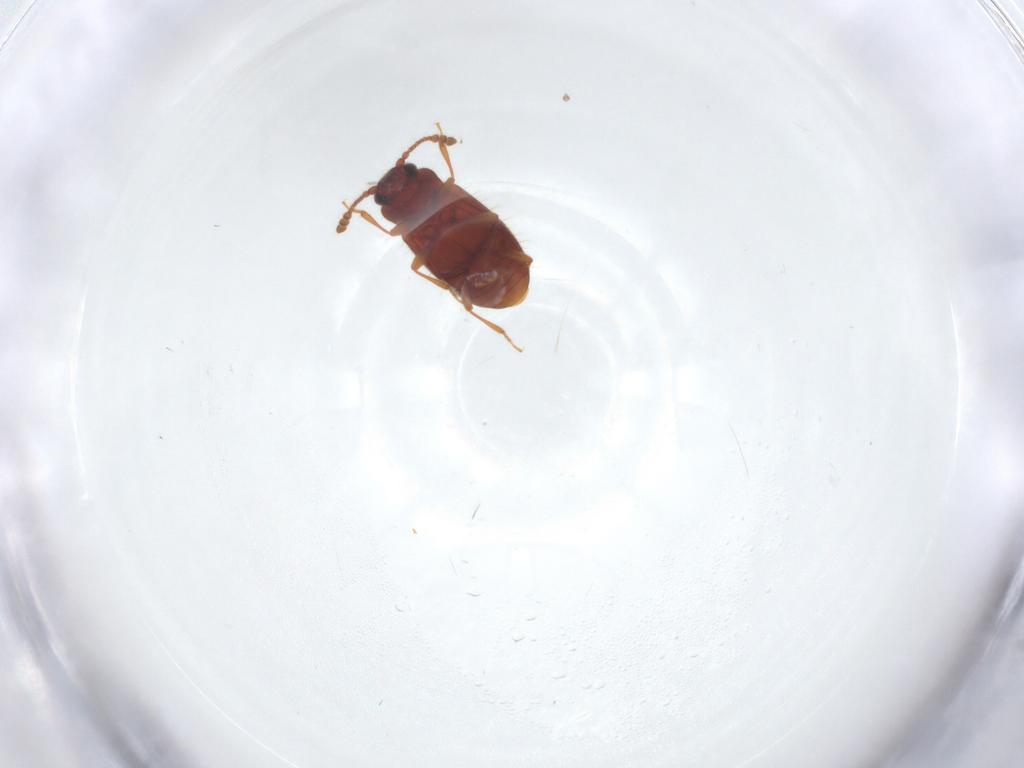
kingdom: Animalia
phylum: Arthropoda
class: Insecta
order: Coleoptera
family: Cryptophagidae
